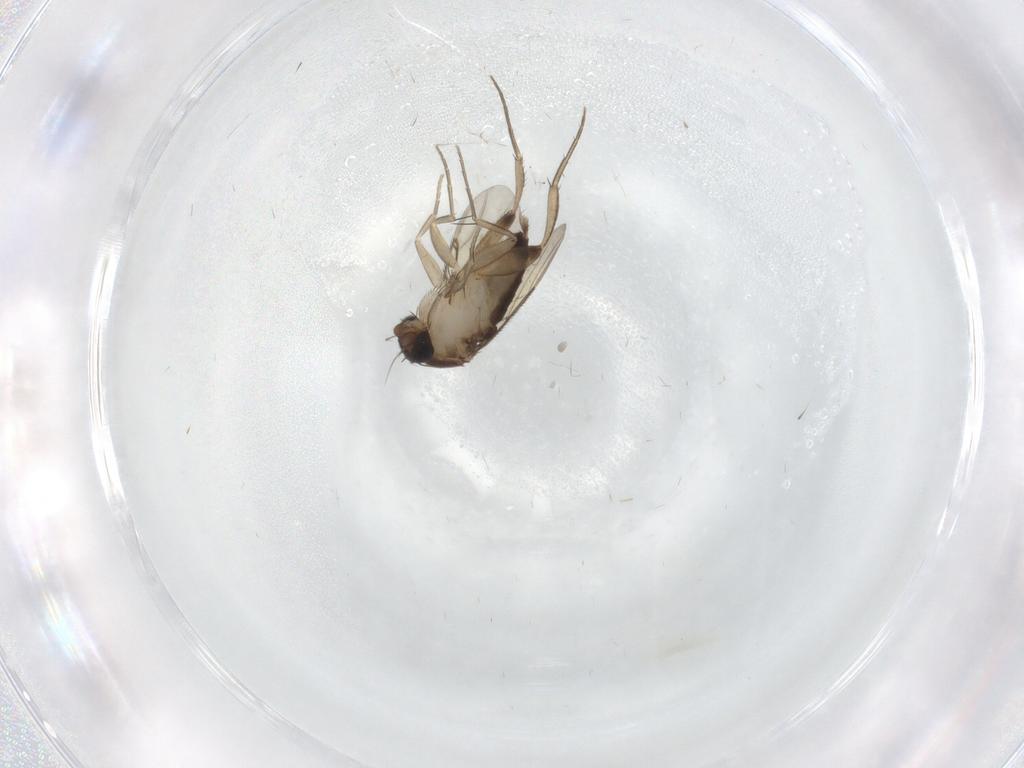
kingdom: Animalia
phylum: Arthropoda
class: Insecta
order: Diptera
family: Phoridae
